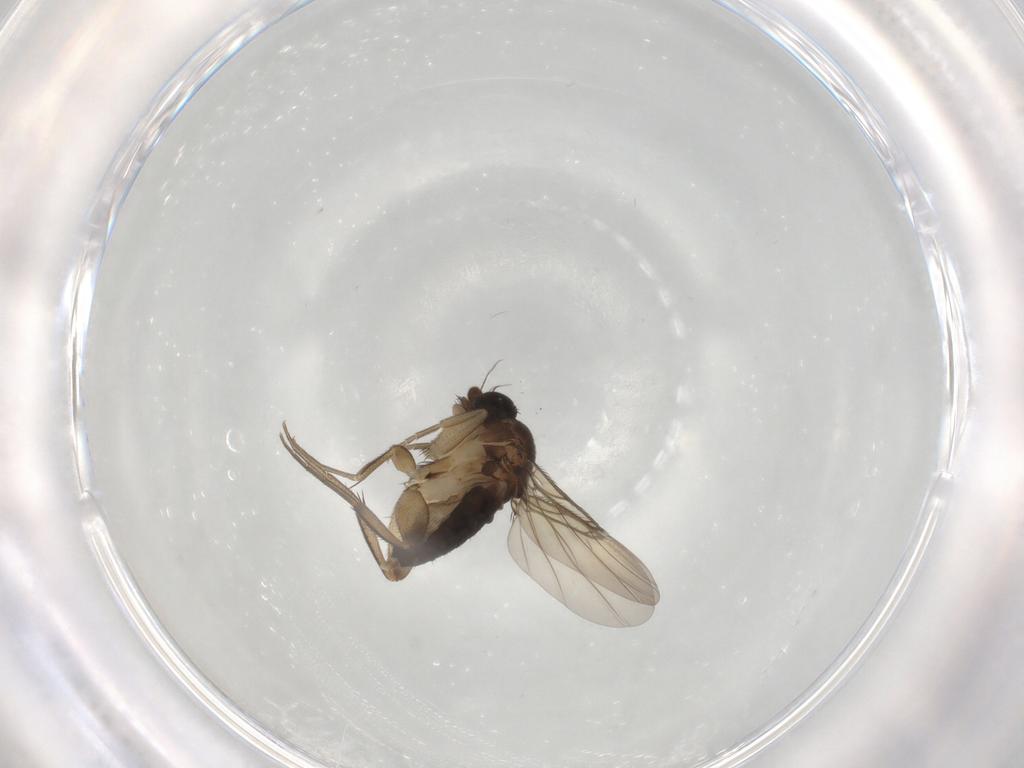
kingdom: Animalia
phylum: Arthropoda
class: Insecta
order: Diptera
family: Phoridae
